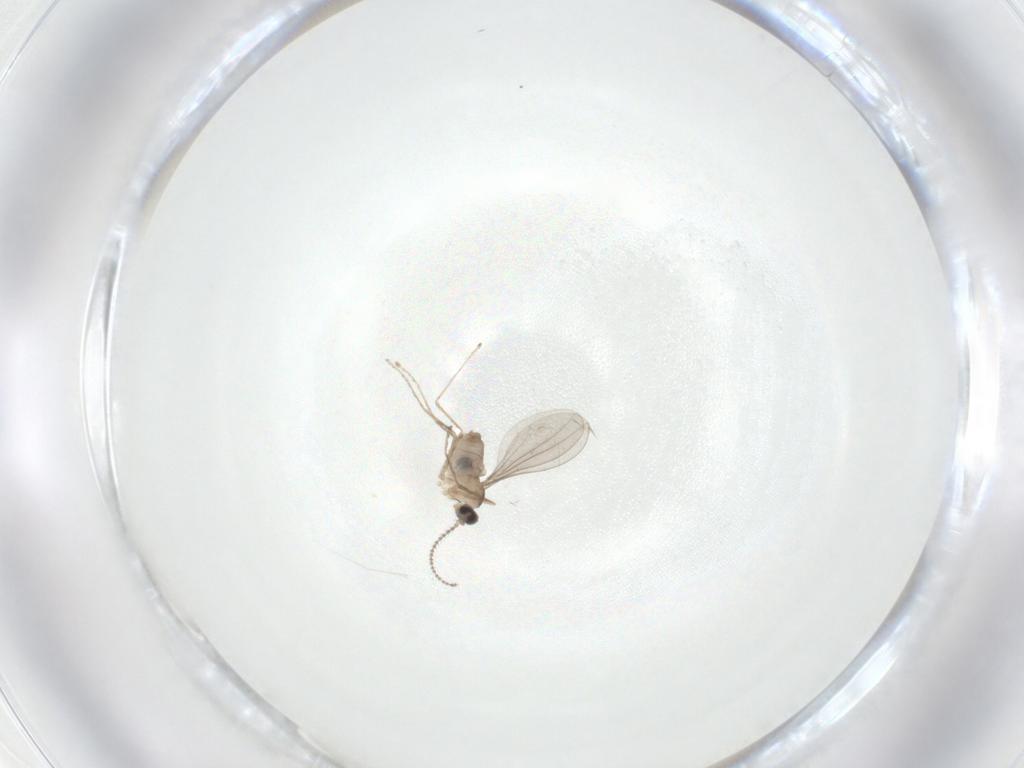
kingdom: Animalia
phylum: Arthropoda
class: Insecta
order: Diptera
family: Cecidomyiidae
